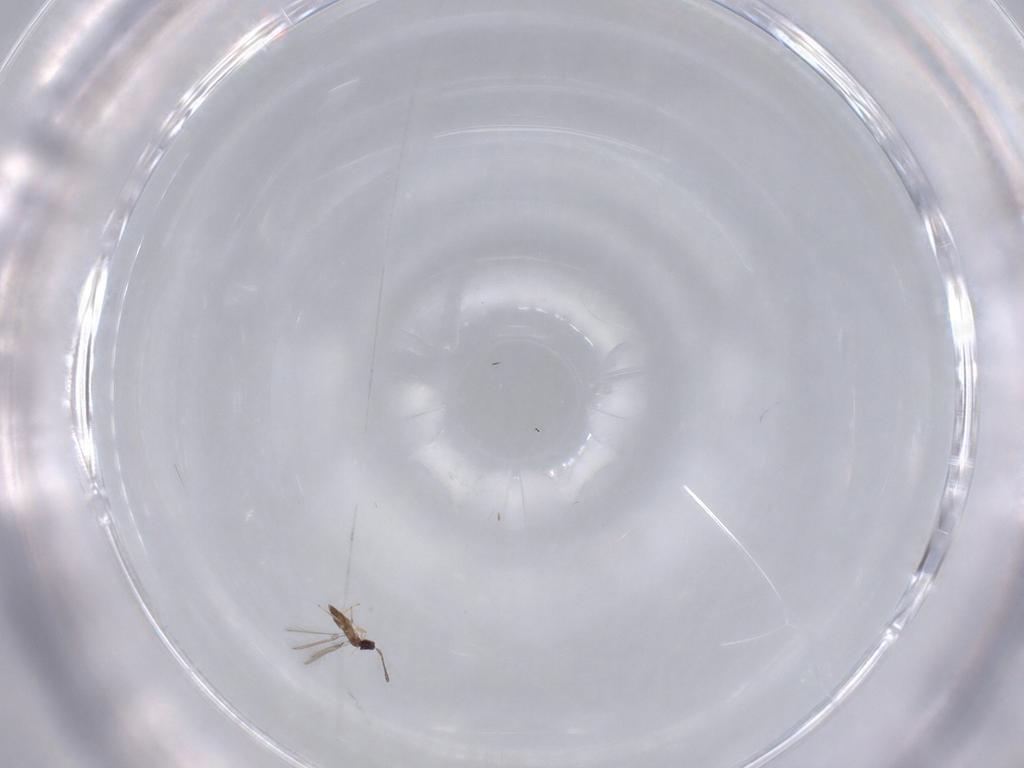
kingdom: Animalia
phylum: Arthropoda
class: Insecta
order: Hymenoptera
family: Mymaridae
